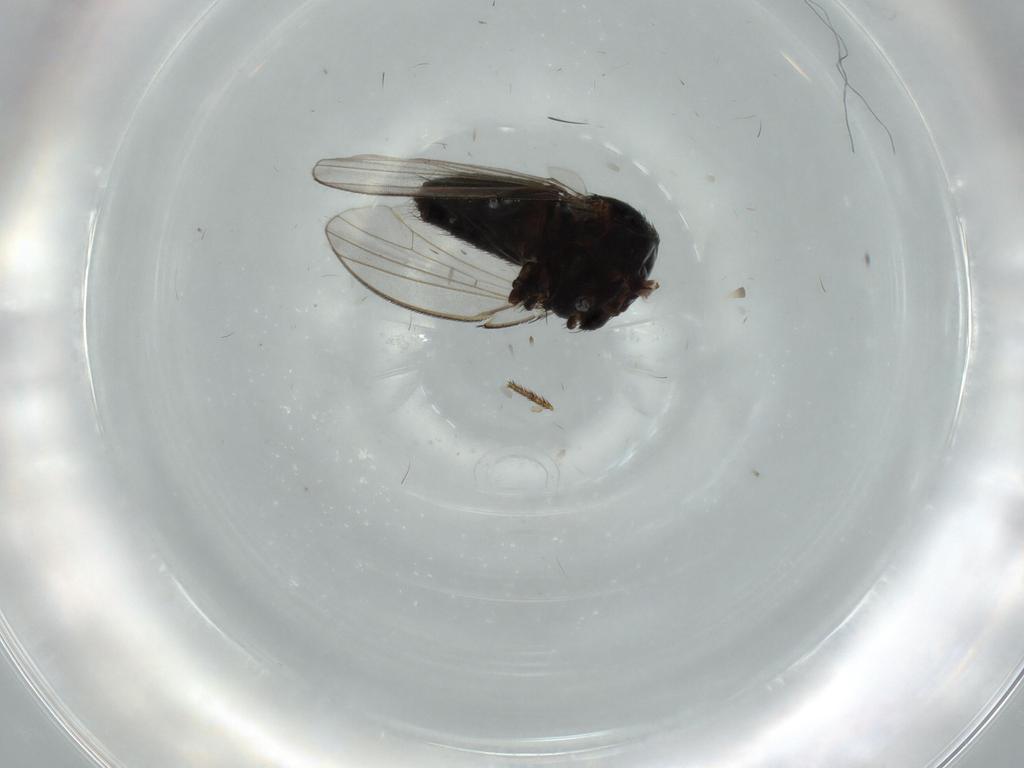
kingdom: Animalia
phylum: Arthropoda
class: Insecta
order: Diptera
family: Milichiidae
